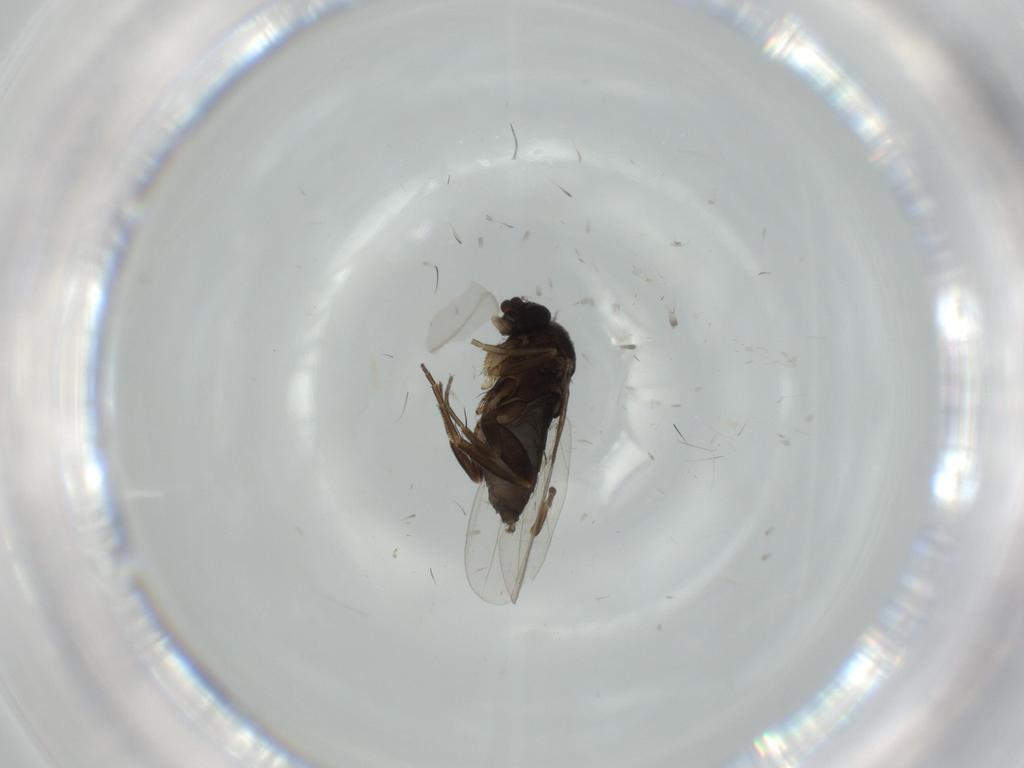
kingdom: Animalia
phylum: Arthropoda
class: Insecta
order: Diptera
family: Phoridae
